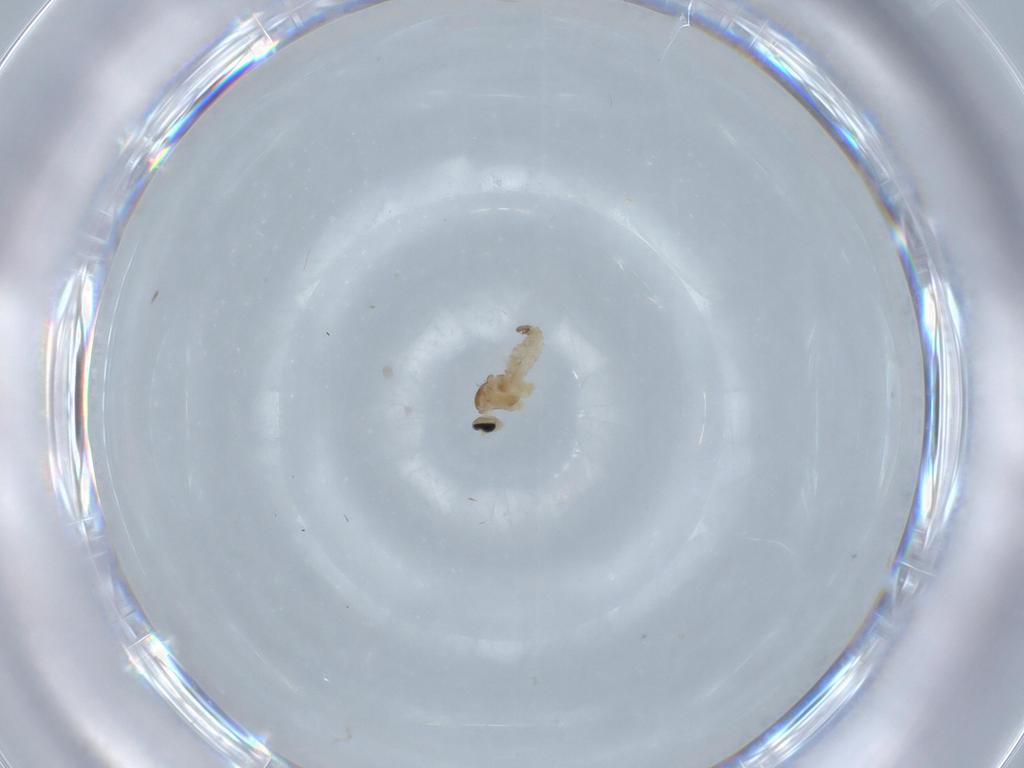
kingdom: Animalia
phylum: Arthropoda
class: Insecta
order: Diptera
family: Cecidomyiidae
